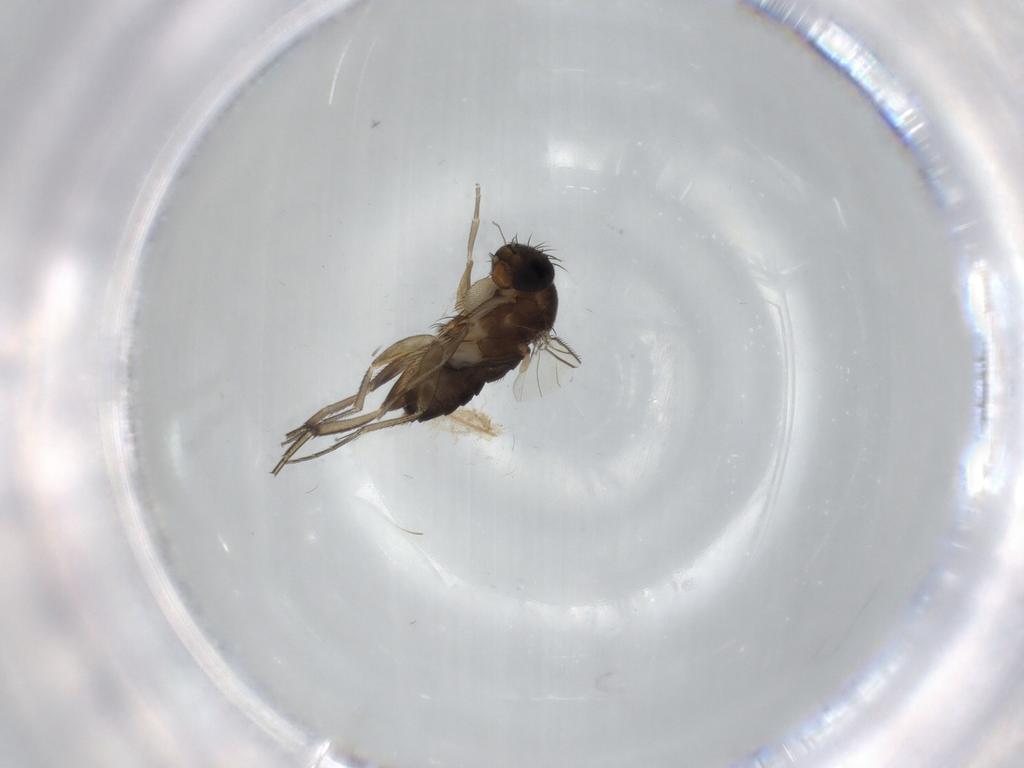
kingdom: Animalia
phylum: Arthropoda
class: Insecta
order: Diptera
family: Phoridae
